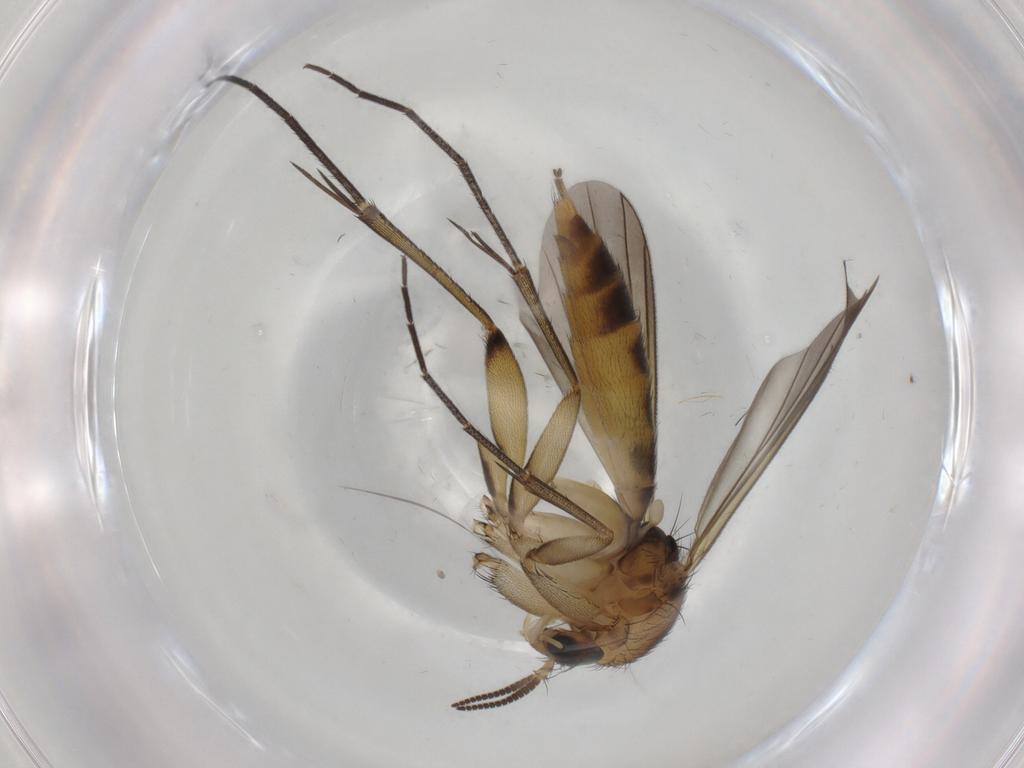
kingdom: Animalia
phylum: Arthropoda
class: Insecta
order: Diptera
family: Mycetophilidae
